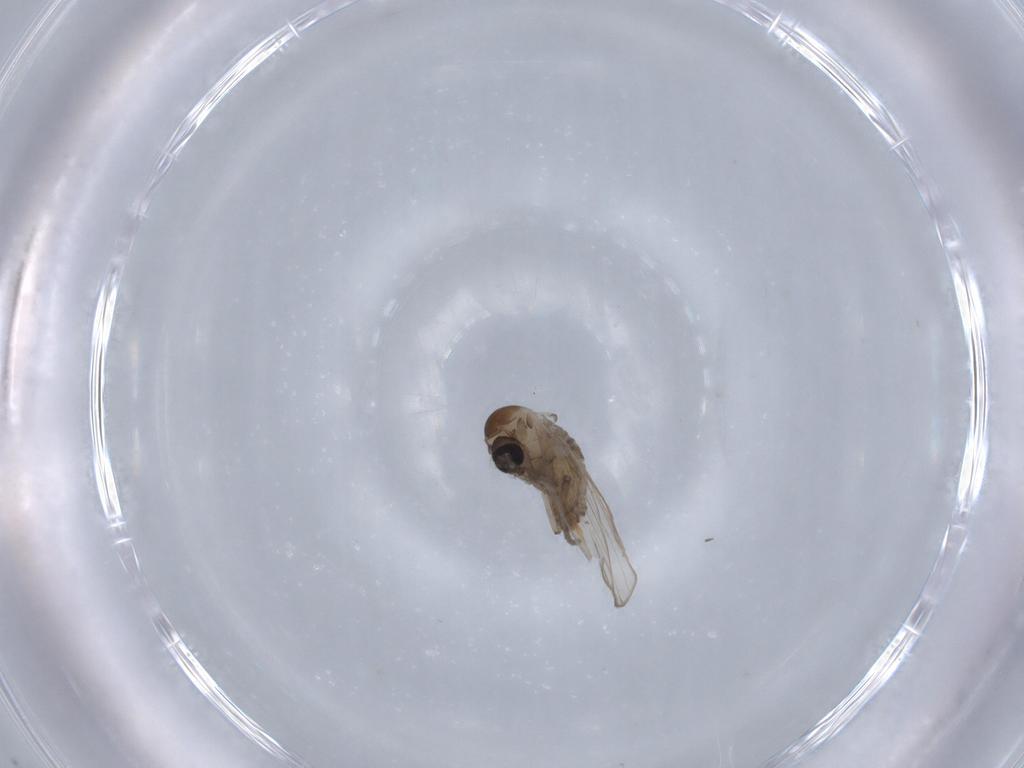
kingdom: Animalia
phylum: Arthropoda
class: Insecta
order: Diptera
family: Psychodidae
